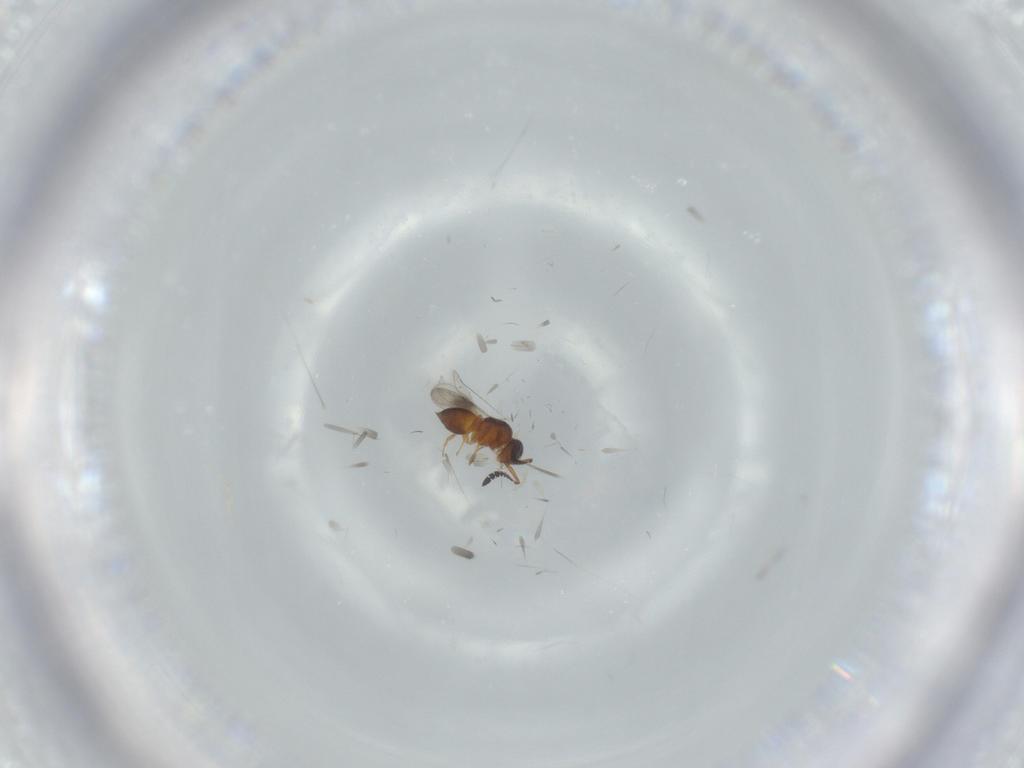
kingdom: Animalia
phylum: Arthropoda
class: Insecta
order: Hymenoptera
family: Ceraphronidae
